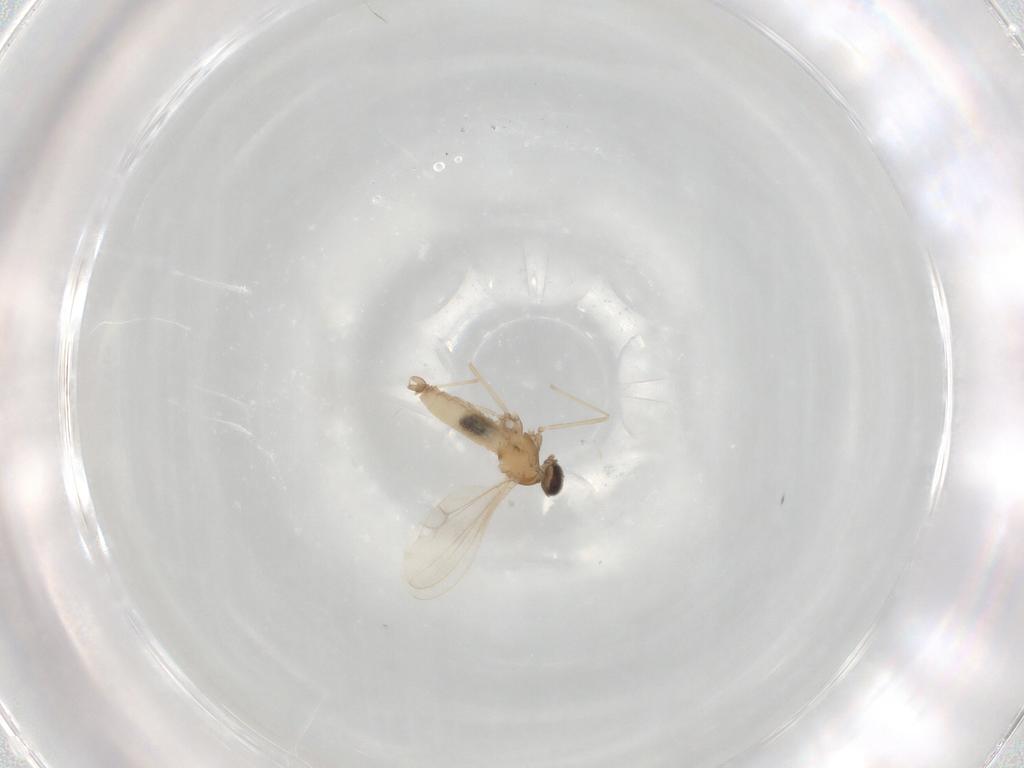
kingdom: Animalia
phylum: Arthropoda
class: Insecta
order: Diptera
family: Cecidomyiidae
